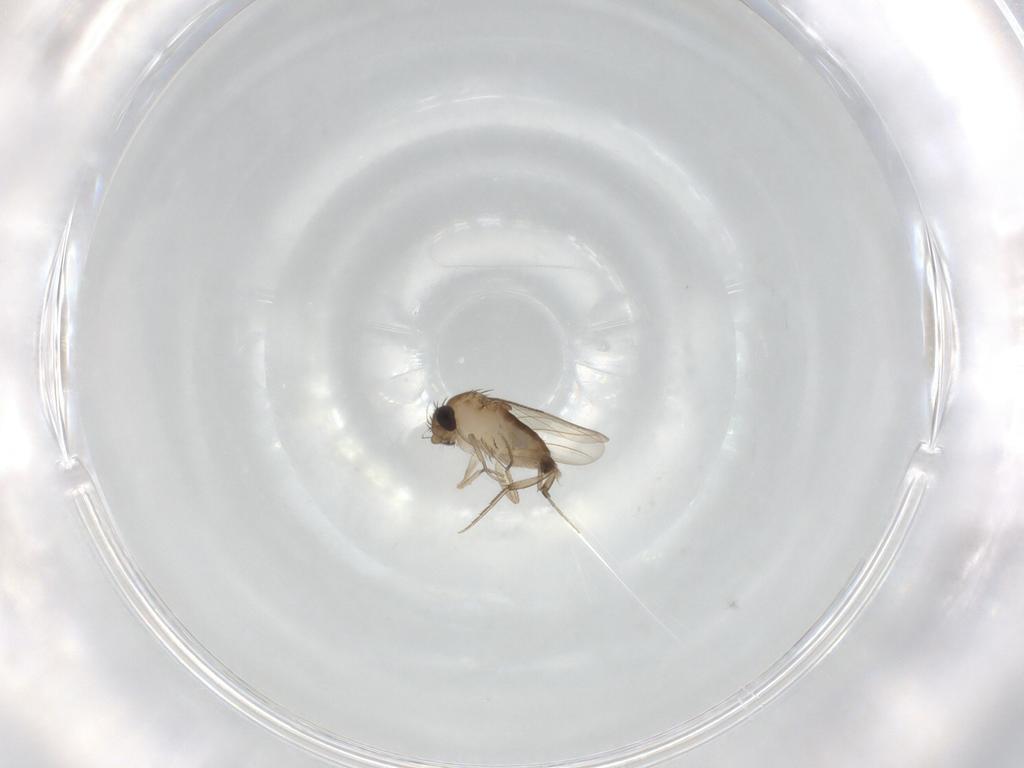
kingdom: Animalia
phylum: Arthropoda
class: Insecta
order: Diptera
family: Phoridae
